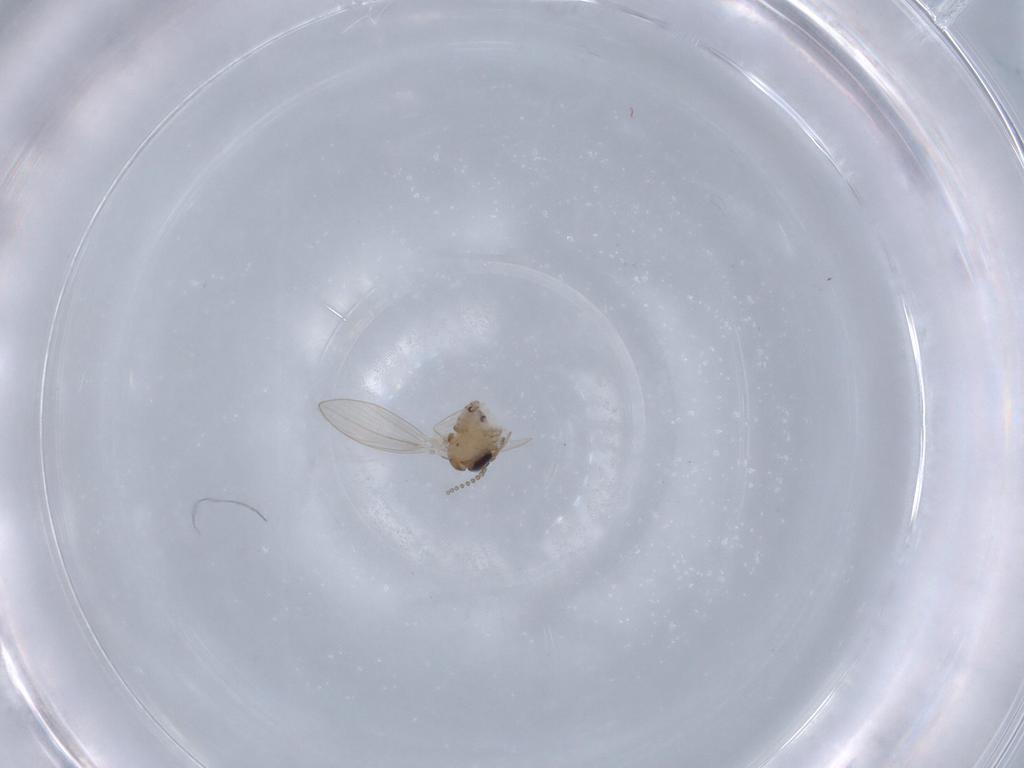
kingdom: Animalia
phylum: Arthropoda
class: Insecta
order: Diptera
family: Psychodidae
